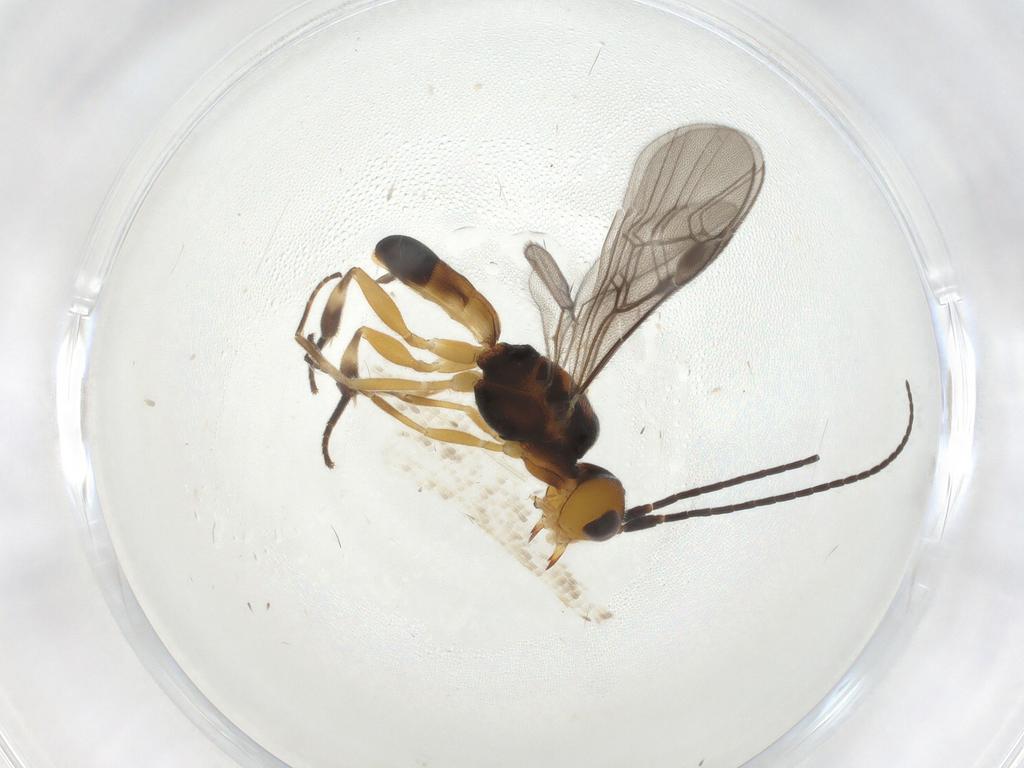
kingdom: Animalia
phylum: Arthropoda
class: Insecta
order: Hymenoptera
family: Braconidae
